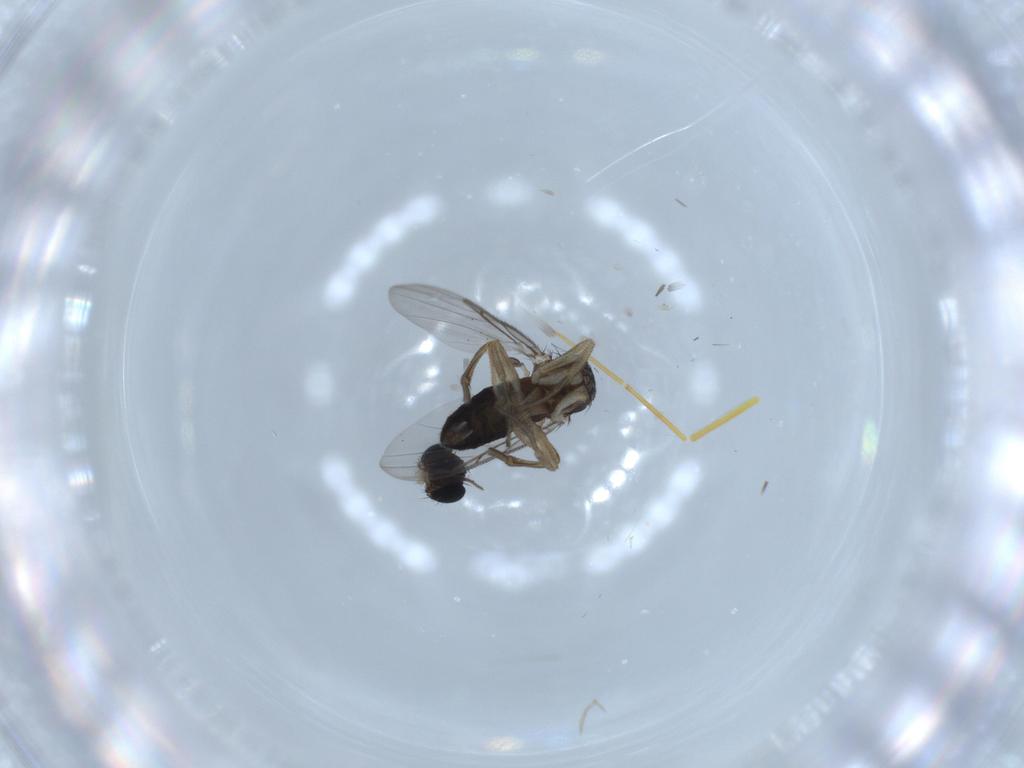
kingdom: Animalia
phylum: Arthropoda
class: Insecta
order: Diptera
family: Phoridae
